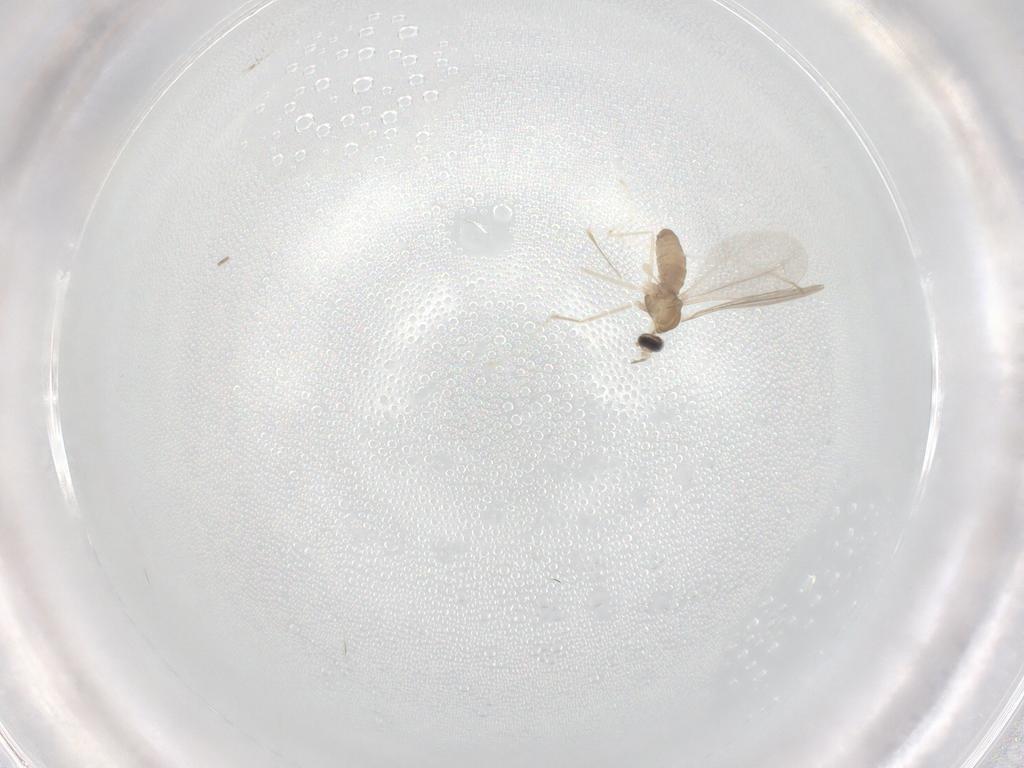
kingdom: Animalia
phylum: Arthropoda
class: Insecta
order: Diptera
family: Cecidomyiidae
